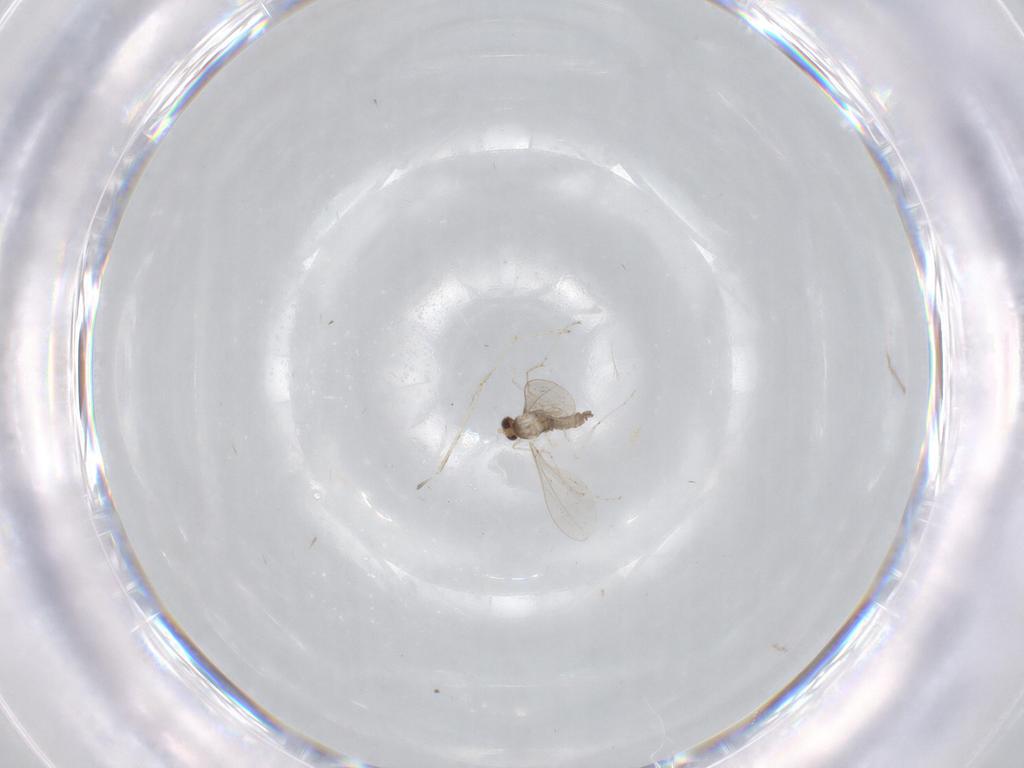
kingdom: Animalia
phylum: Arthropoda
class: Insecta
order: Diptera
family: Cecidomyiidae
